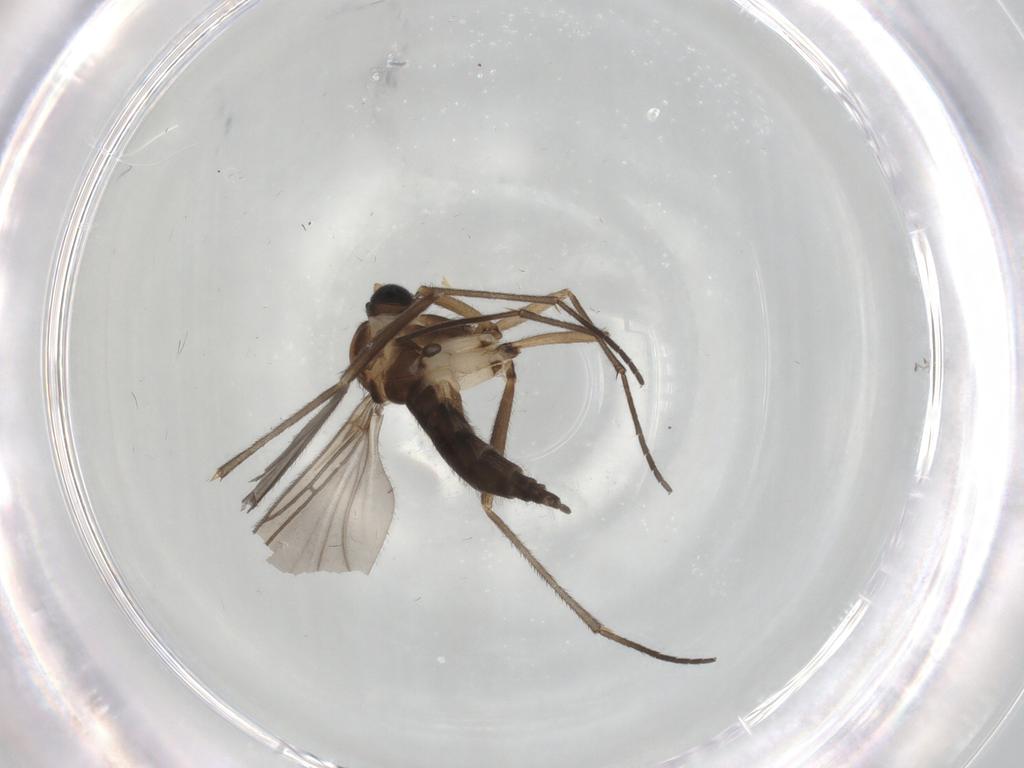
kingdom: Animalia
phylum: Arthropoda
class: Insecta
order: Diptera
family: Sciaridae
